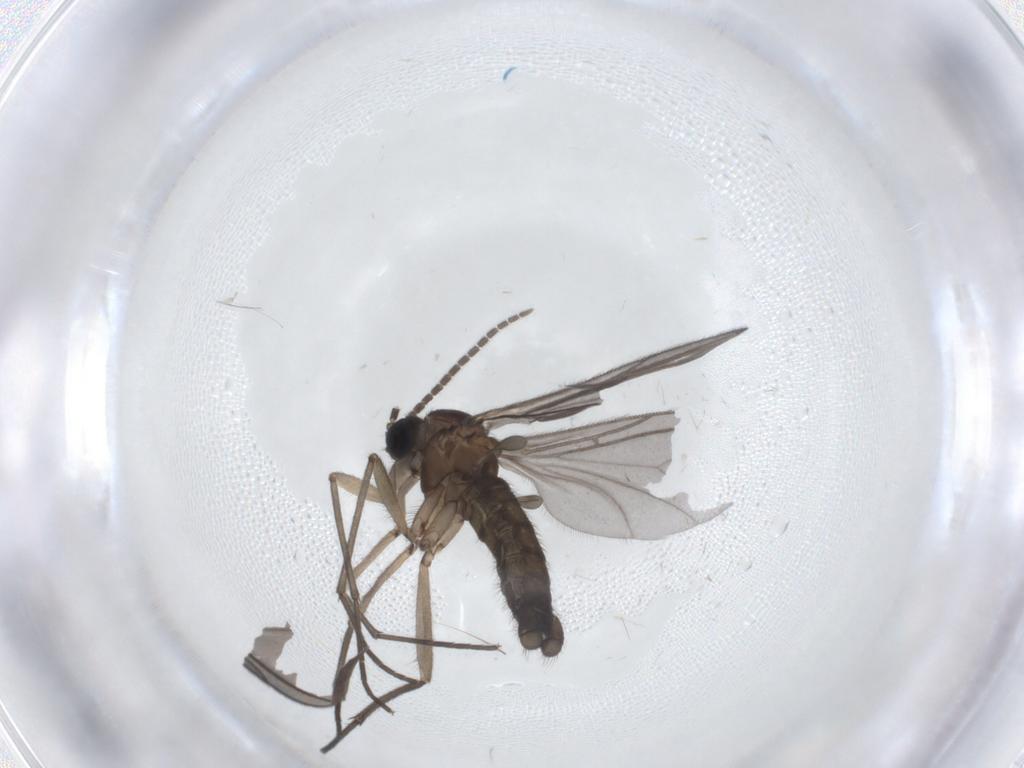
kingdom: Animalia
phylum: Arthropoda
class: Insecta
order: Diptera
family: Sciaridae
